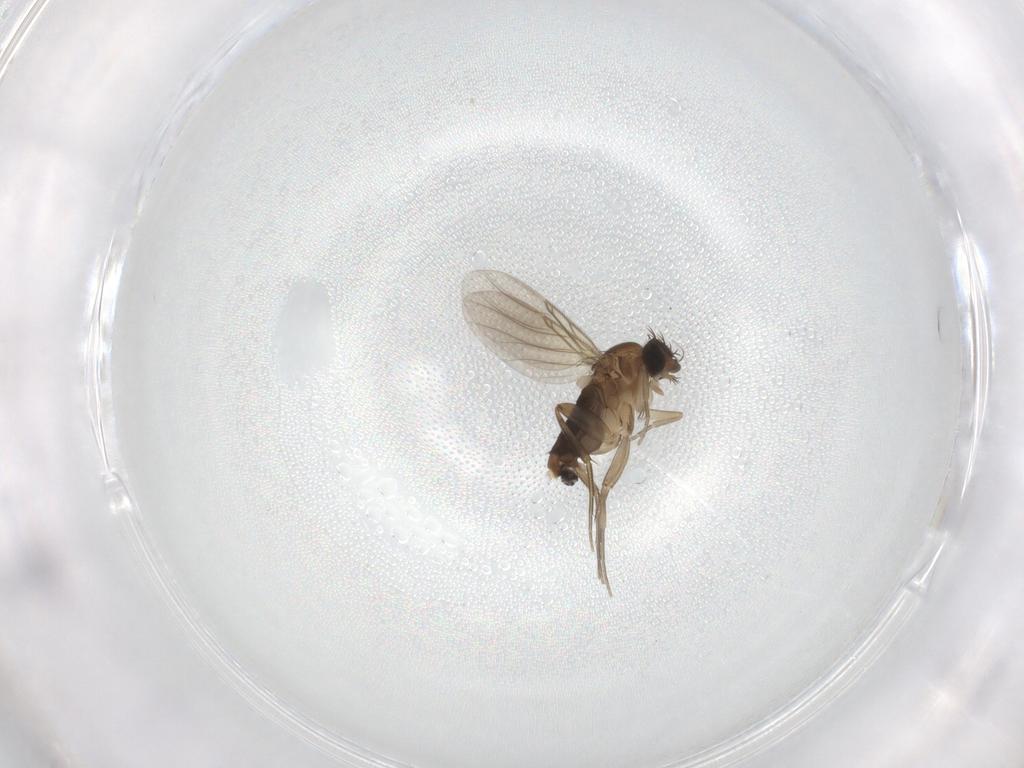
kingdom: Animalia
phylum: Arthropoda
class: Insecta
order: Diptera
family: Phoridae
